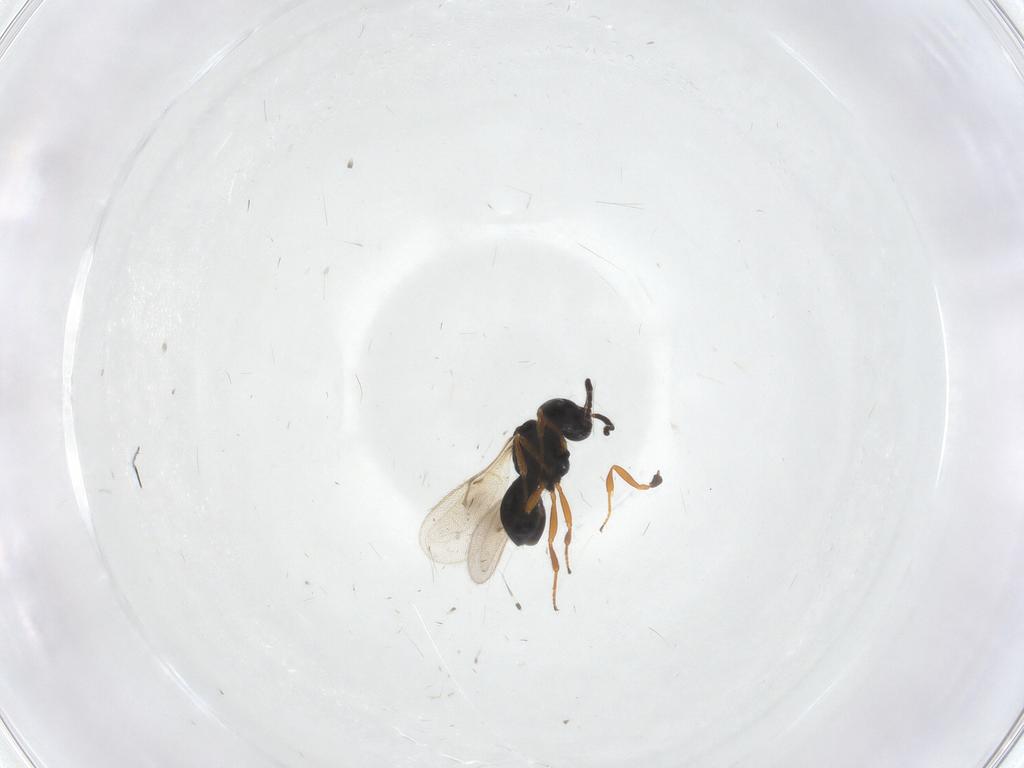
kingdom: Animalia
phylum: Arthropoda
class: Insecta
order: Hymenoptera
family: Scelionidae
